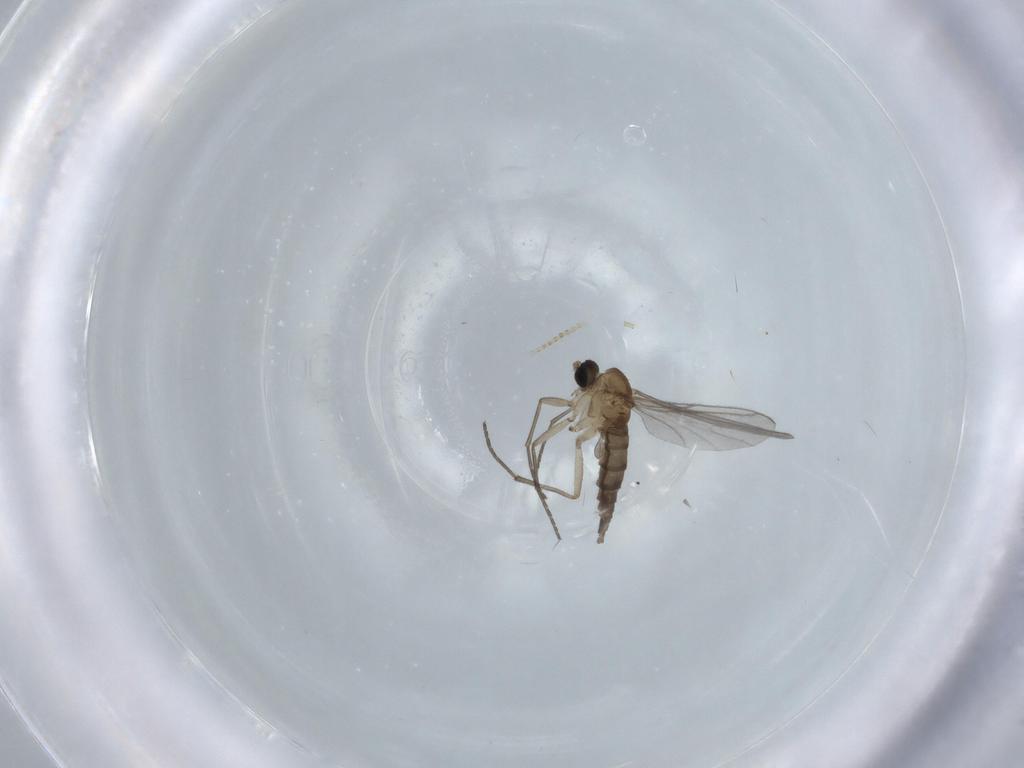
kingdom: Animalia
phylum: Arthropoda
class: Insecta
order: Diptera
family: Sciaridae
